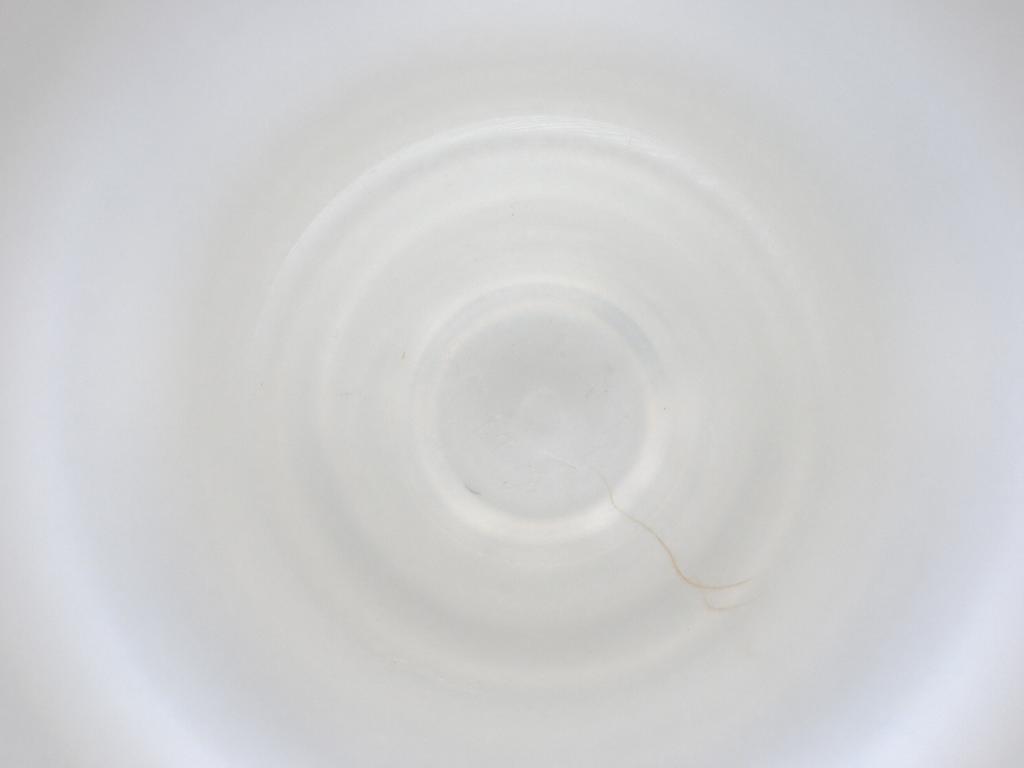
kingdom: Animalia
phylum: Arthropoda
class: Insecta
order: Diptera
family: Cecidomyiidae
